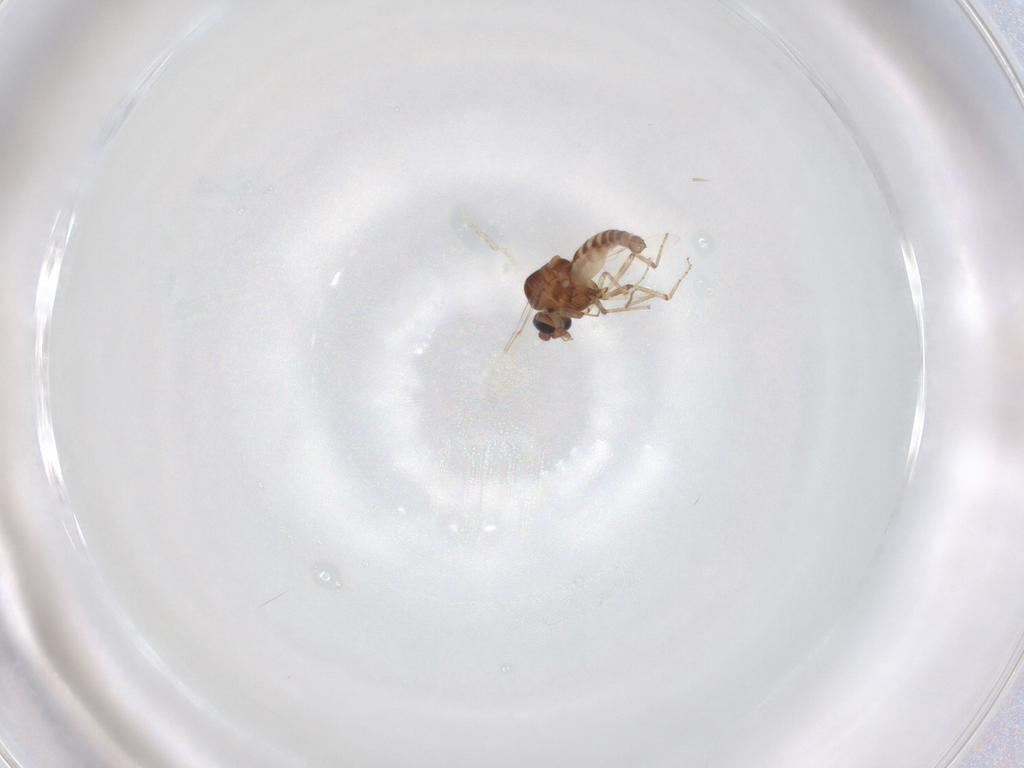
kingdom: Animalia
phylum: Arthropoda
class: Insecta
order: Diptera
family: Ceratopogonidae
